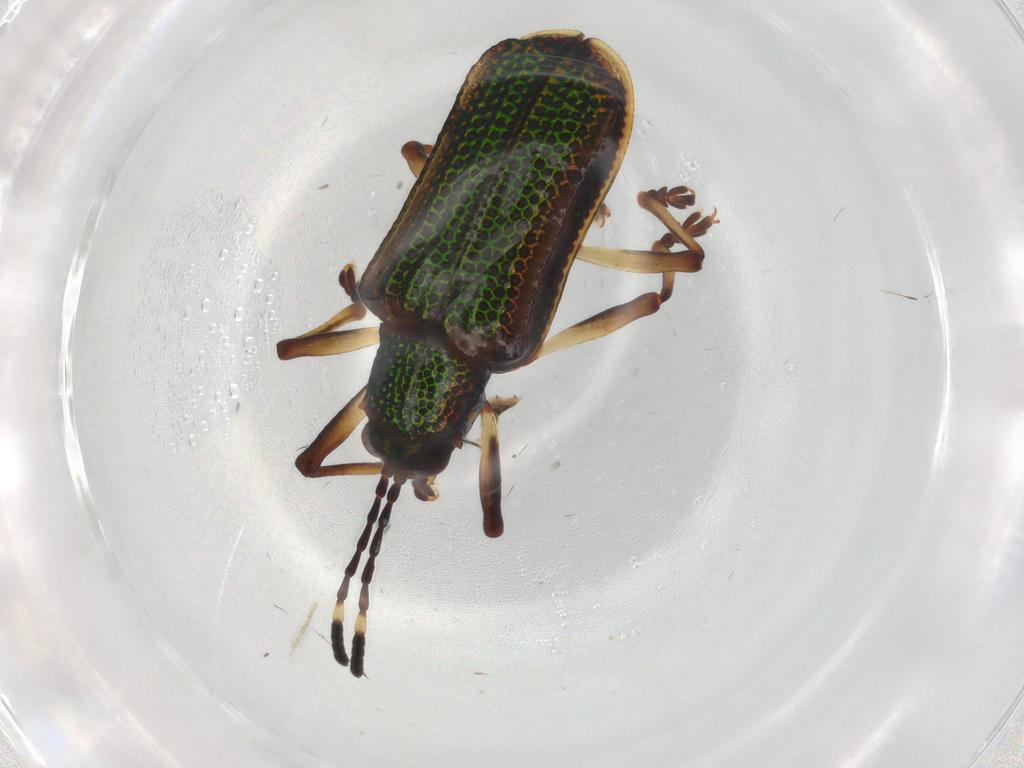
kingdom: Animalia
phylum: Arthropoda
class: Insecta
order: Coleoptera
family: Chrysomelidae
